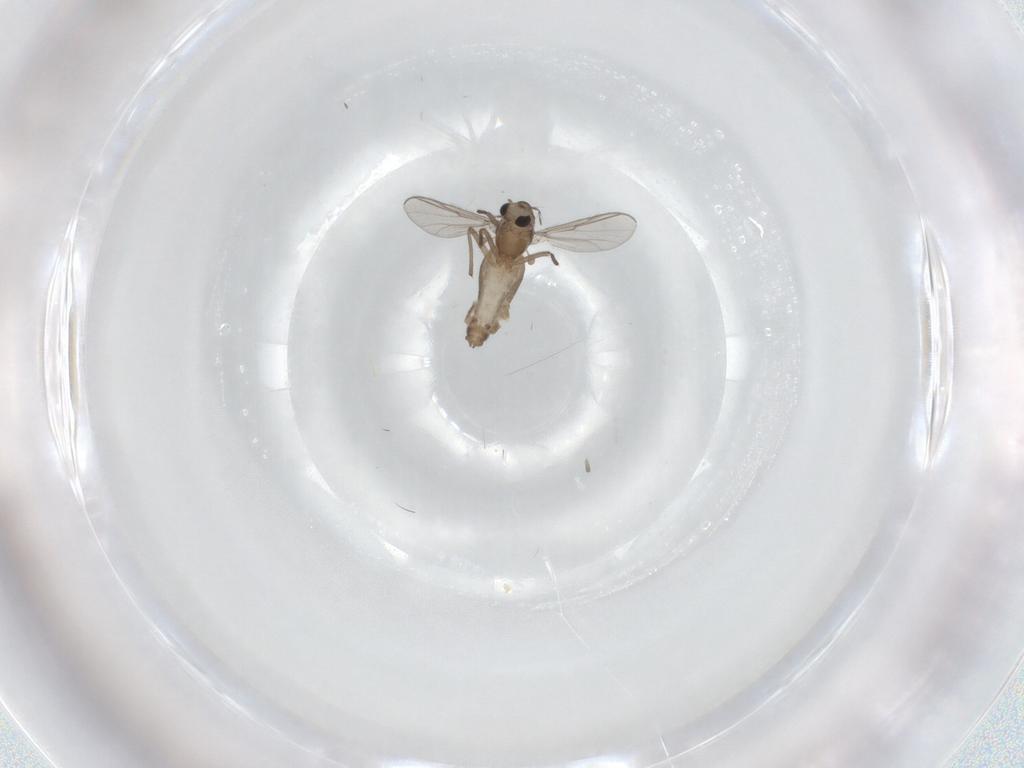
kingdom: Animalia
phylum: Arthropoda
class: Insecta
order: Diptera
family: Chironomidae
